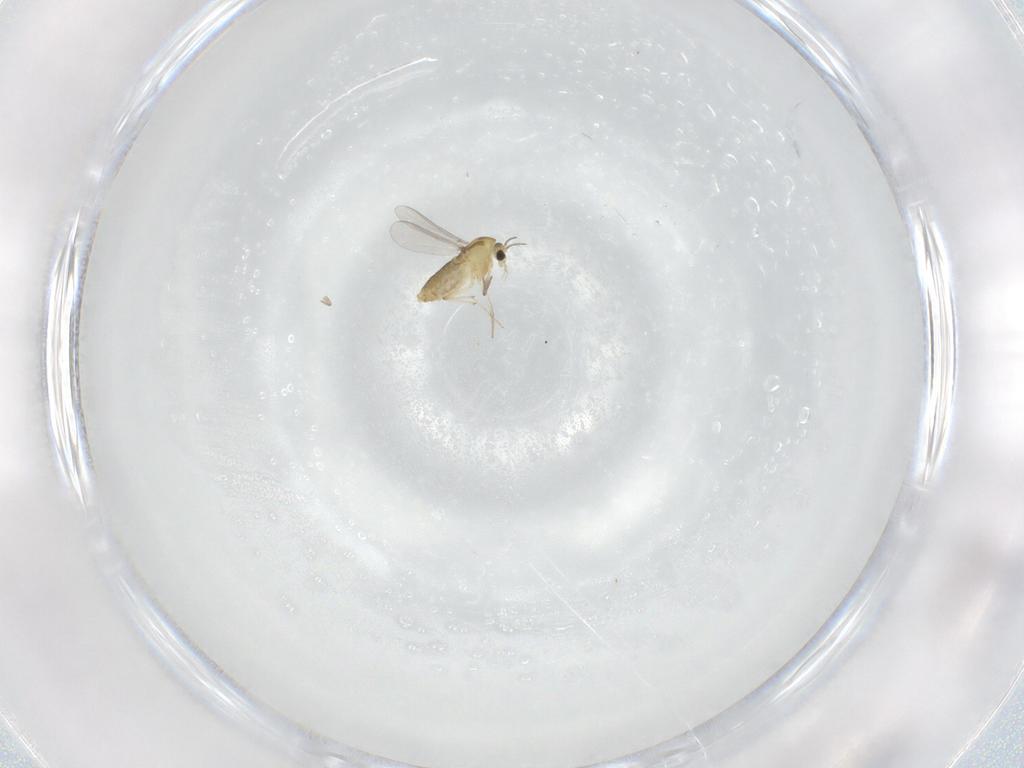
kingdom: Animalia
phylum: Arthropoda
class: Insecta
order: Diptera
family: Chironomidae
